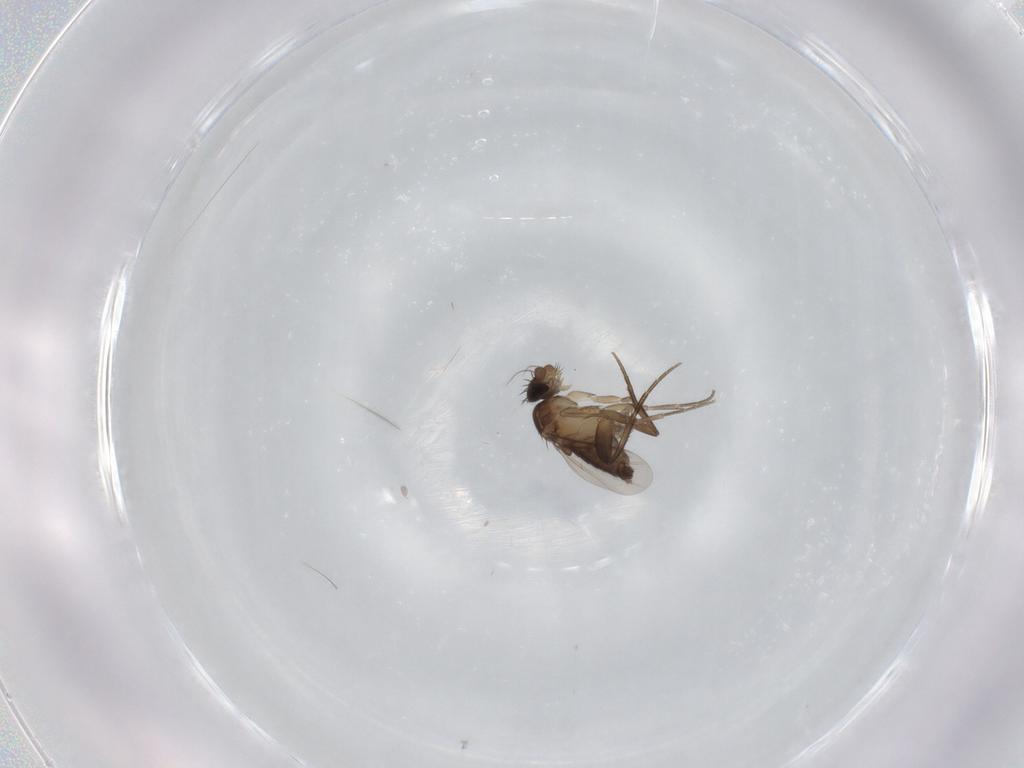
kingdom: Animalia
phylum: Arthropoda
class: Insecta
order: Diptera
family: Phoridae
